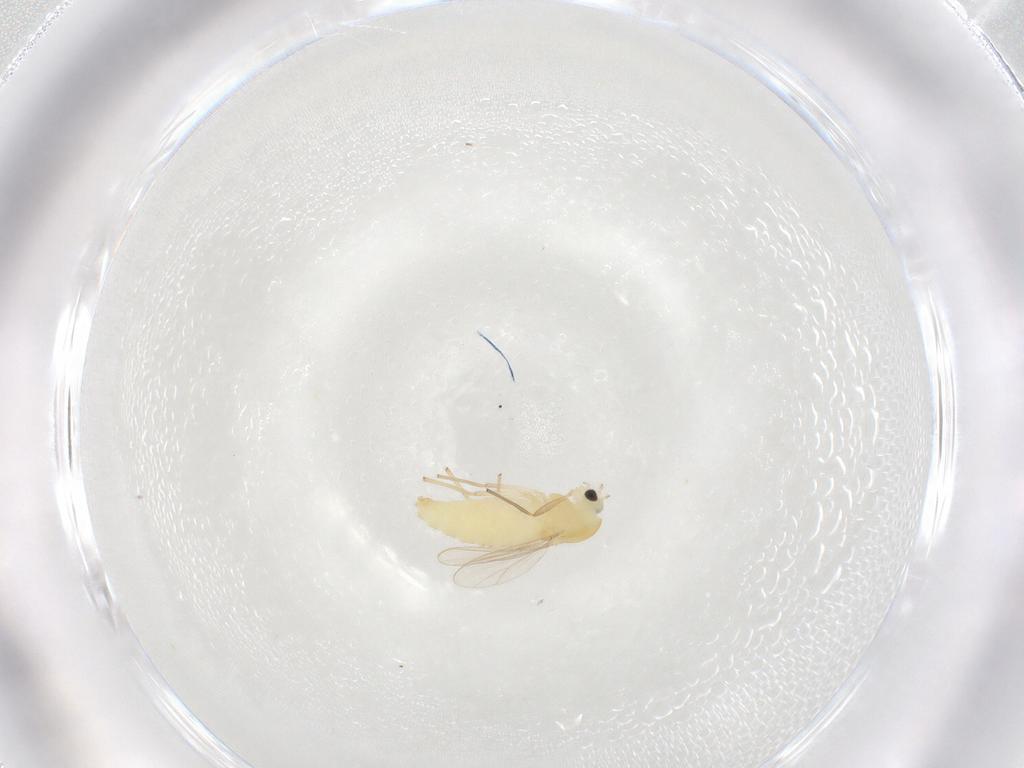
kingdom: Animalia
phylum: Arthropoda
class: Insecta
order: Diptera
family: Chironomidae
